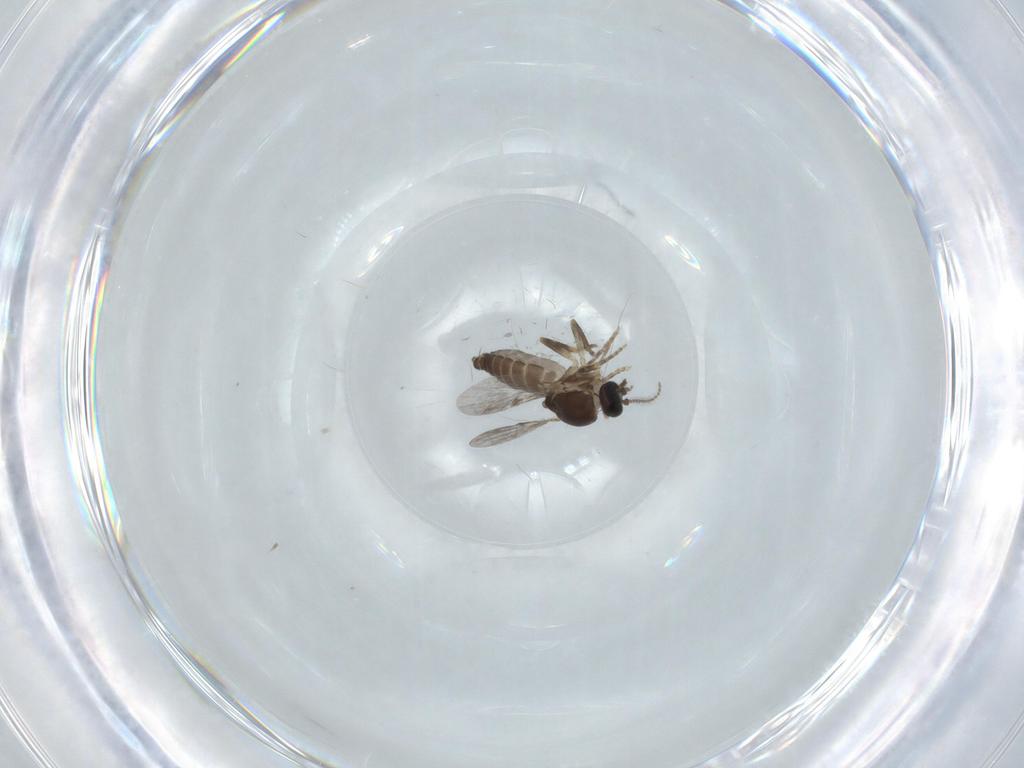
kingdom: Animalia
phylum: Arthropoda
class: Insecta
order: Diptera
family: Ceratopogonidae
